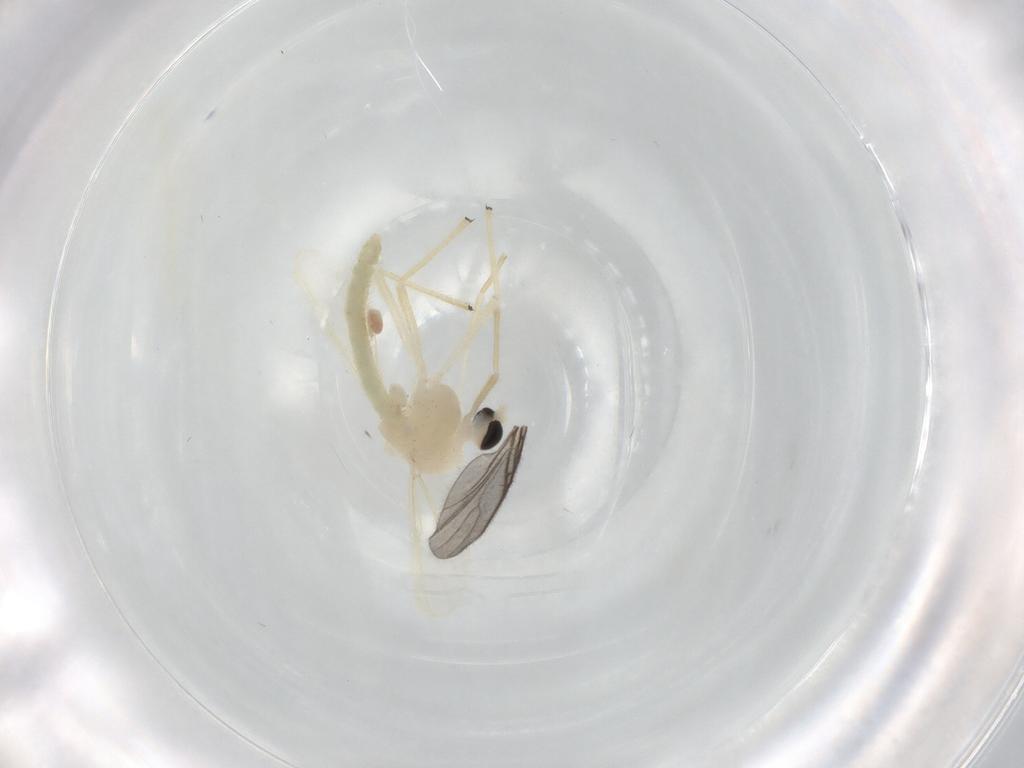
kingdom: Animalia
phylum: Arthropoda
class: Insecta
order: Diptera
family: Chironomidae
